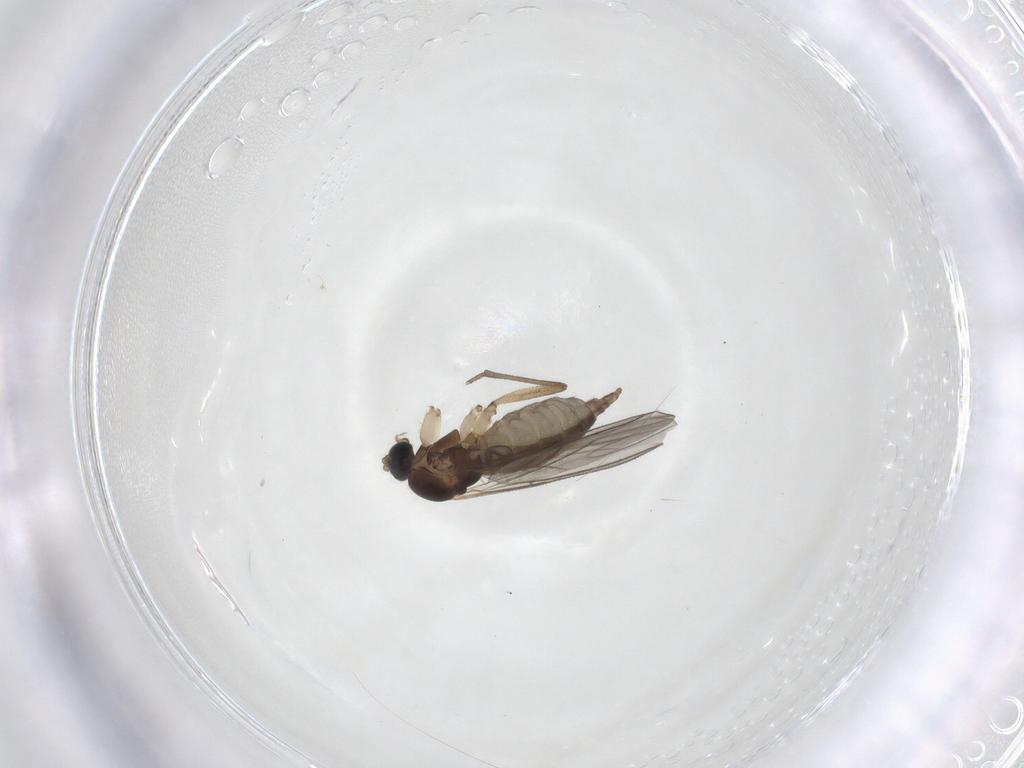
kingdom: Animalia
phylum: Arthropoda
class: Insecta
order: Diptera
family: Sciaridae
